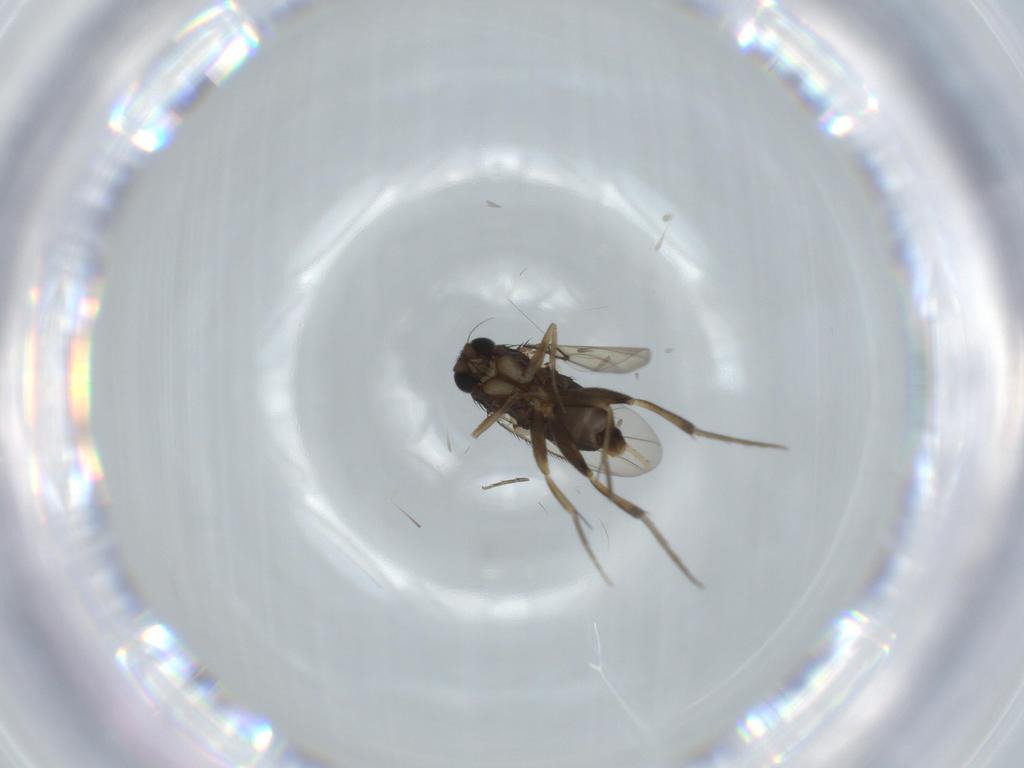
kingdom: Animalia
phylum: Arthropoda
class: Insecta
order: Diptera
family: Phoridae
